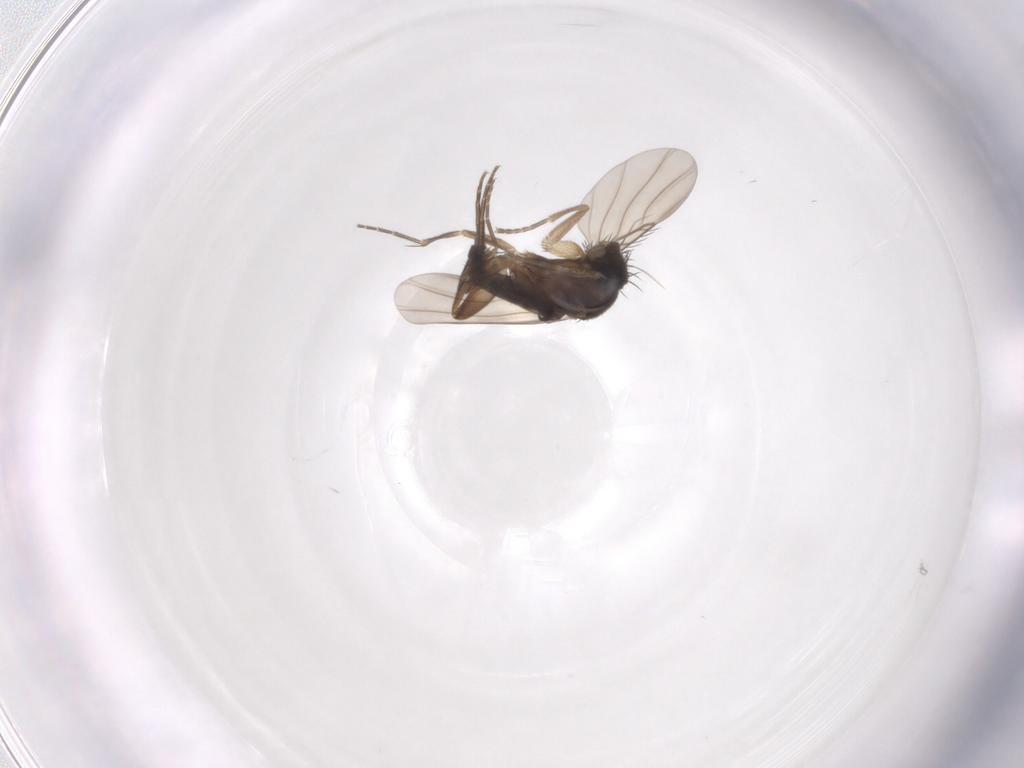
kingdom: Animalia
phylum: Arthropoda
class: Insecta
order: Diptera
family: Phoridae
